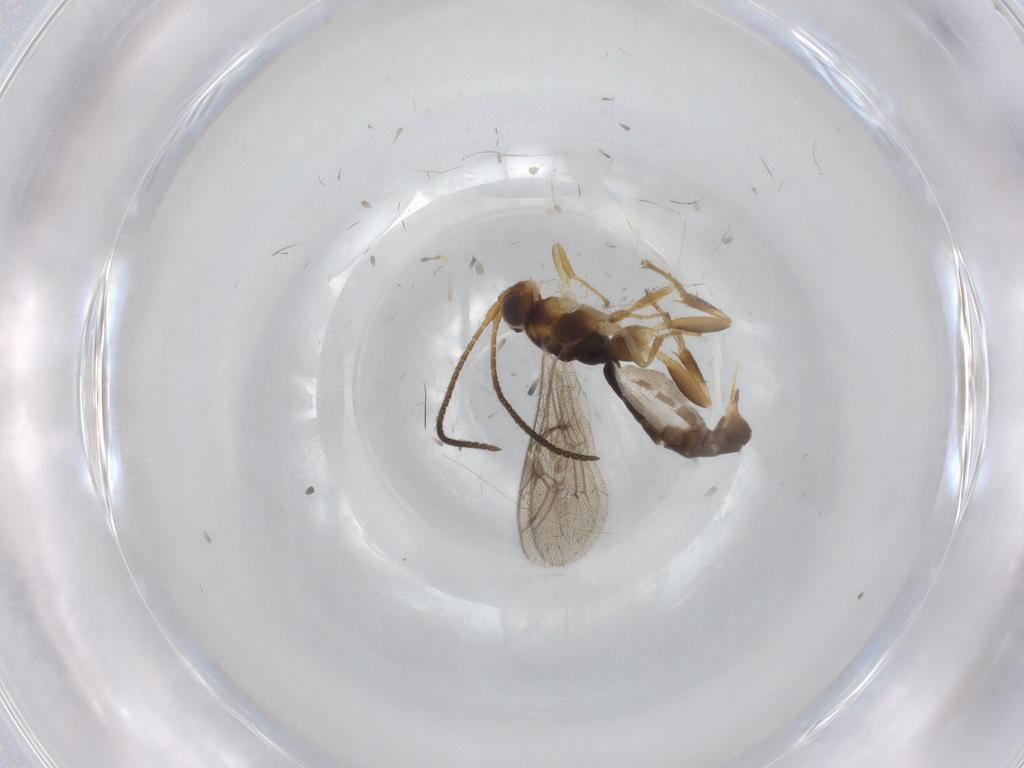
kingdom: Animalia
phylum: Arthropoda
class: Insecta
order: Hymenoptera
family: Formicidae
